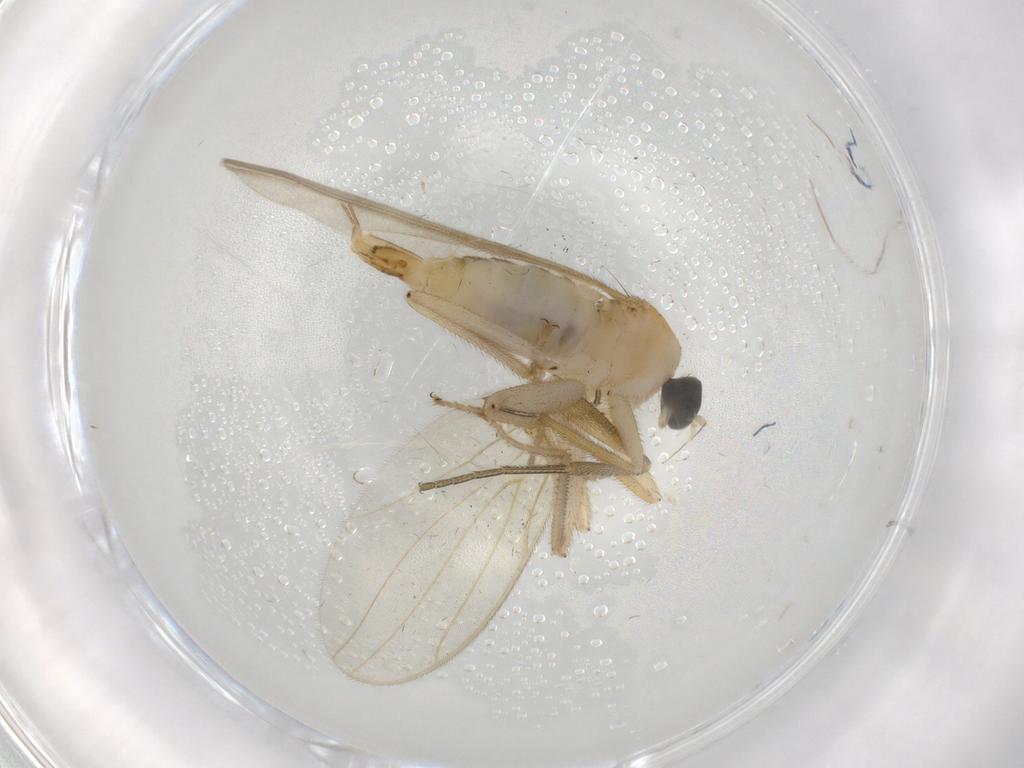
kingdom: Animalia
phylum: Arthropoda
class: Insecta
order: Diptera
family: Hybotidae
